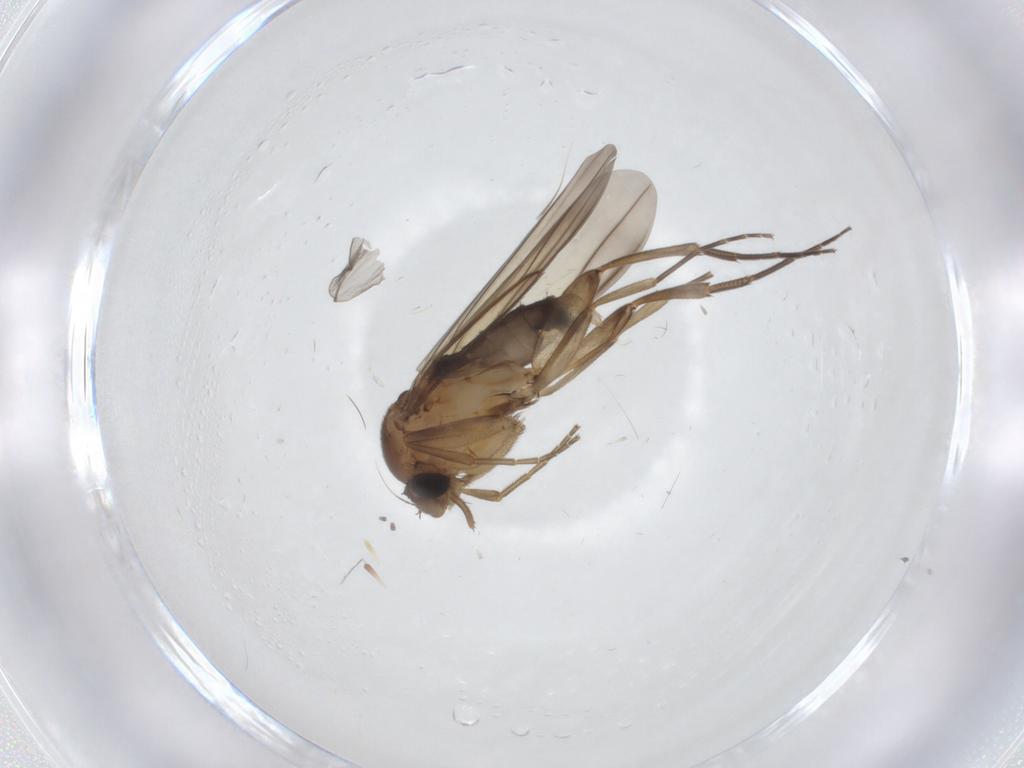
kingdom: Animalia
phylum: Arthropoda
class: Insecta
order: Diptera
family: Phoridae
